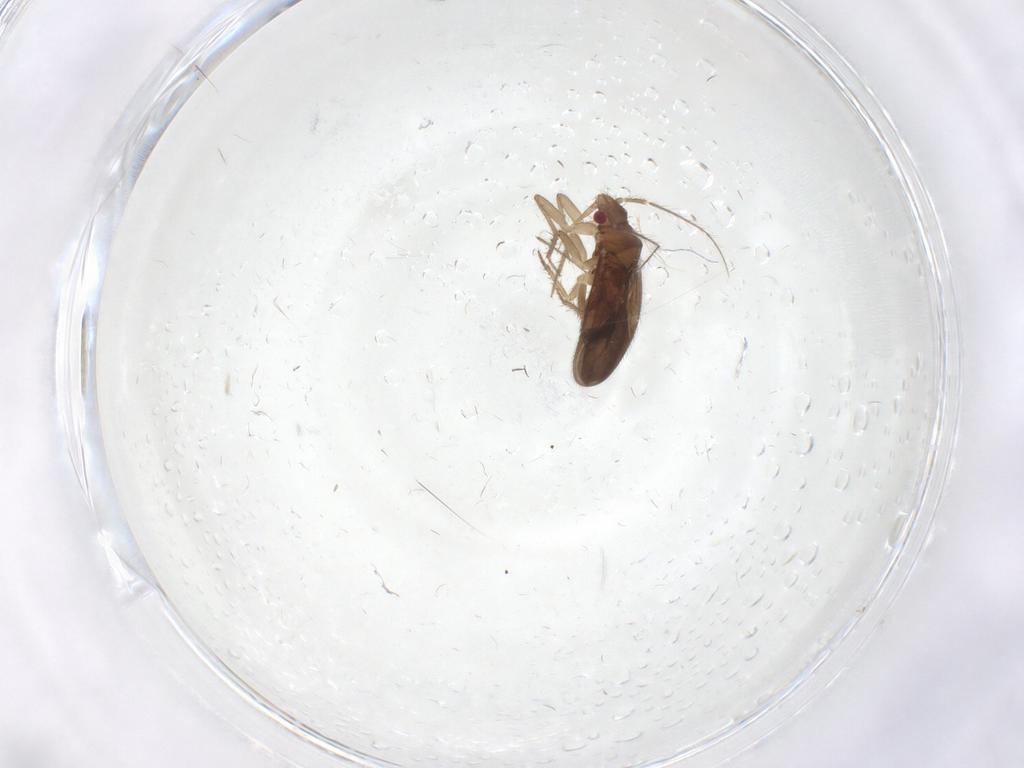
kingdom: Animalia
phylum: Arthropoda
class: Insecta
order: Hemiptera
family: Ceratocombidae
